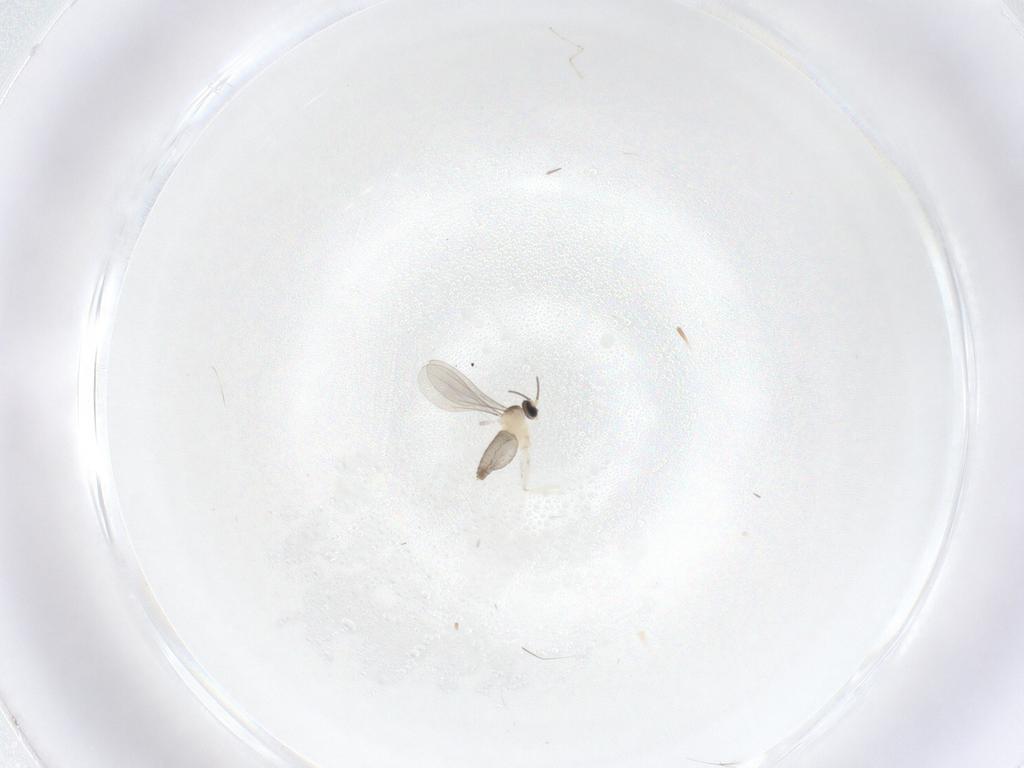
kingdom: Animalia
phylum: Arthropoda
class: Insecta
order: Diptera
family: Cecidomyiidae
